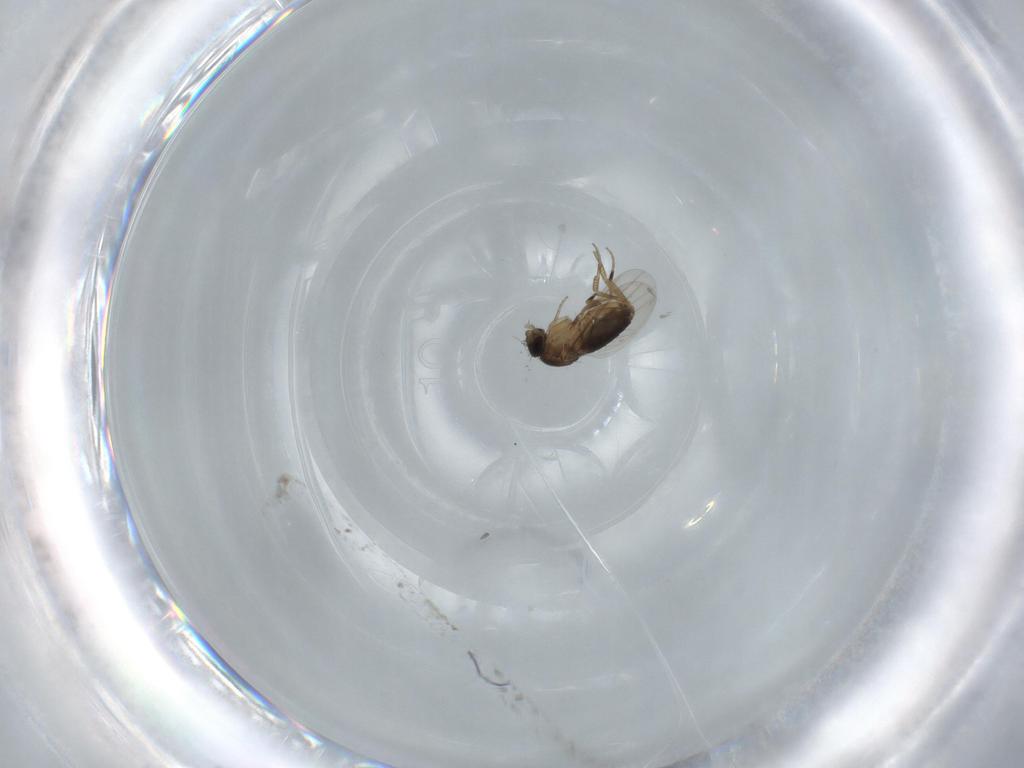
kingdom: Animalia
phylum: Arthropoda
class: Insecta
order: Diptera
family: Phoridae
